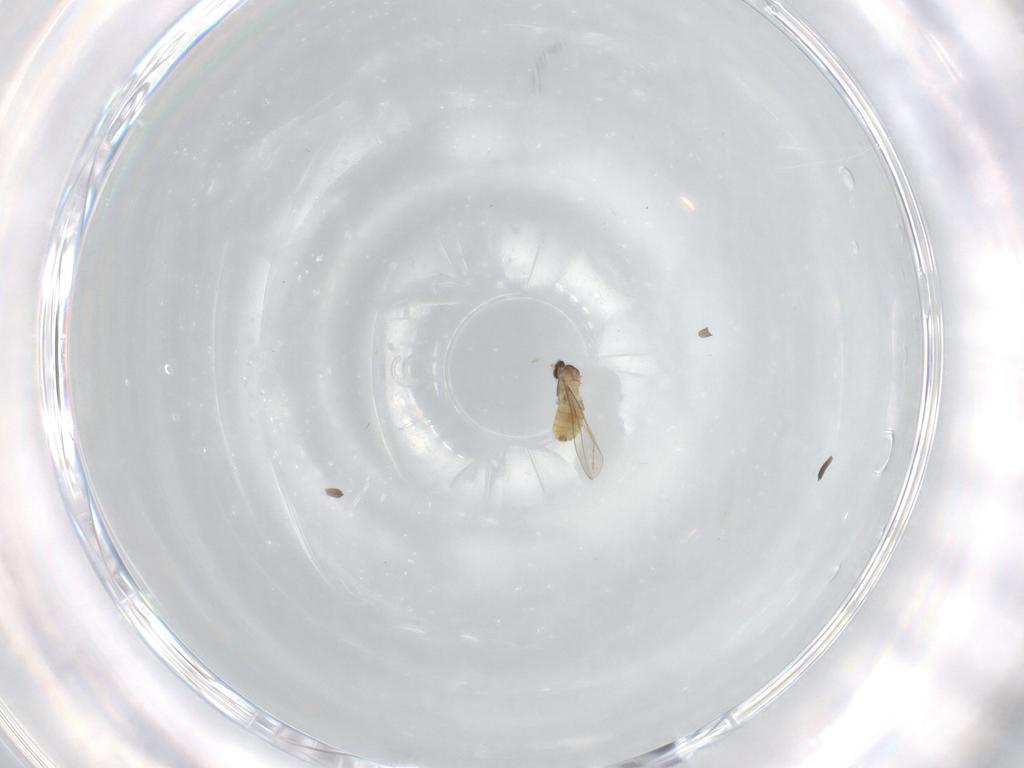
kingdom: Animalia
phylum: Arthropoda
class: Insecta
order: Diptera
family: Cecidomyiidae
